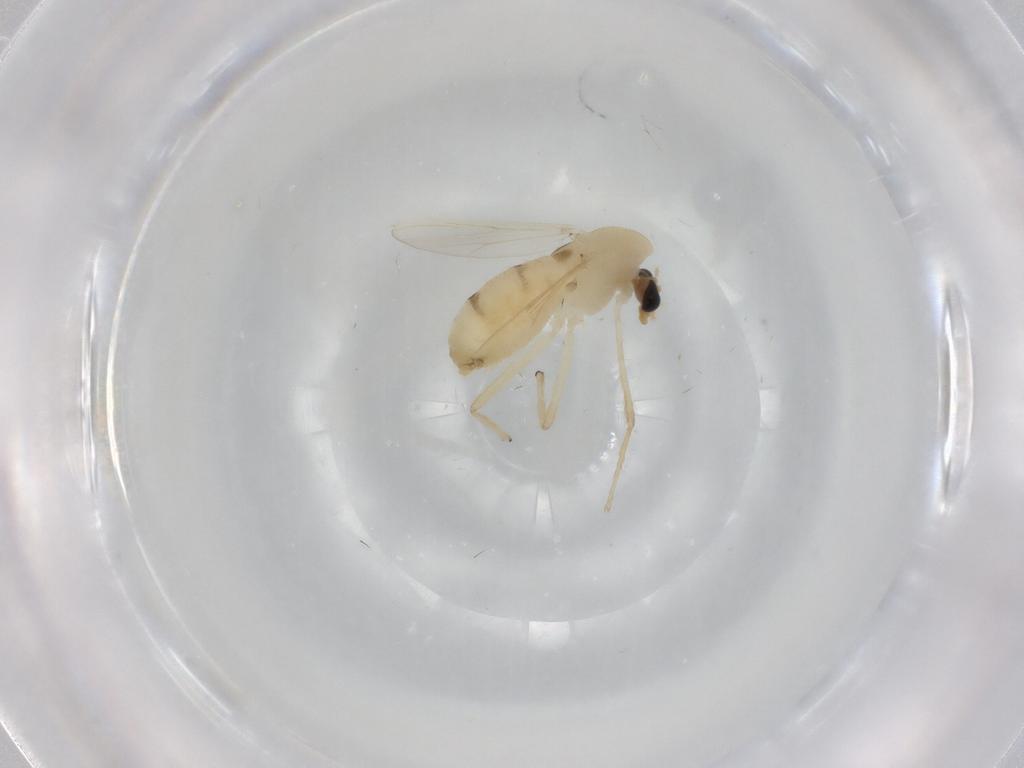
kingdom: Animalia
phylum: Arthropoda
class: Insecta
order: Diptera
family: Chironomidae
